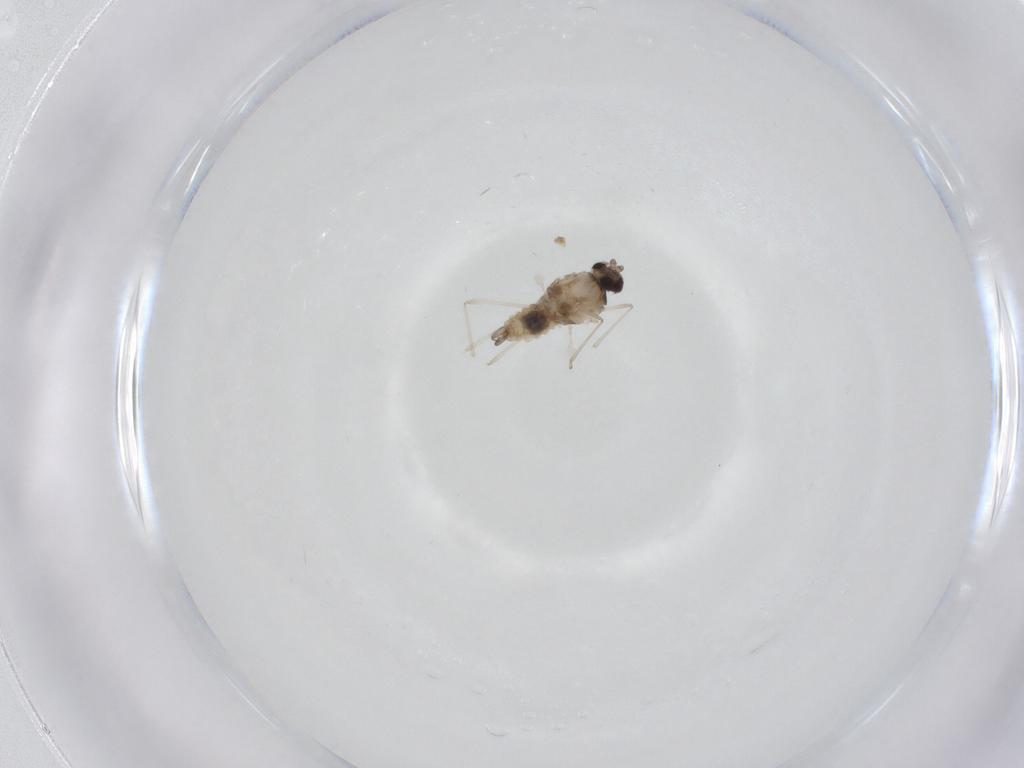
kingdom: Animalia
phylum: Arthropoda
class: Insecta
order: Diptera
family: Cecidomyiidae
